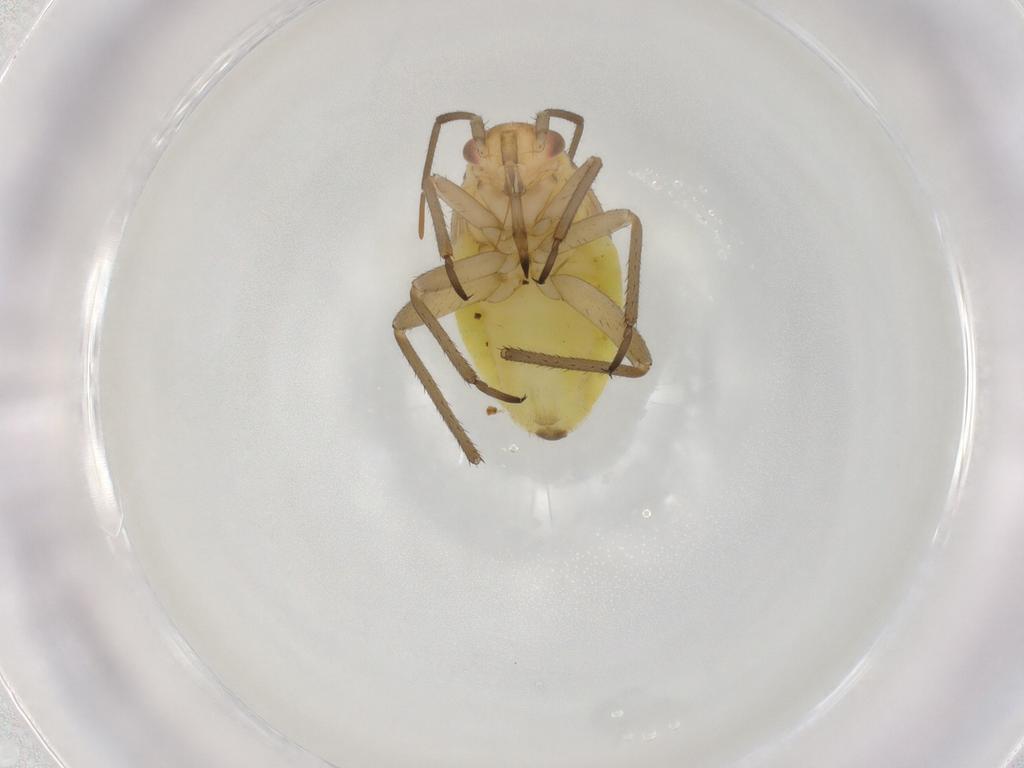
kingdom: Animalia
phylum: Arthropoda
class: Insecta
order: Hemiptera
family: Miridae
